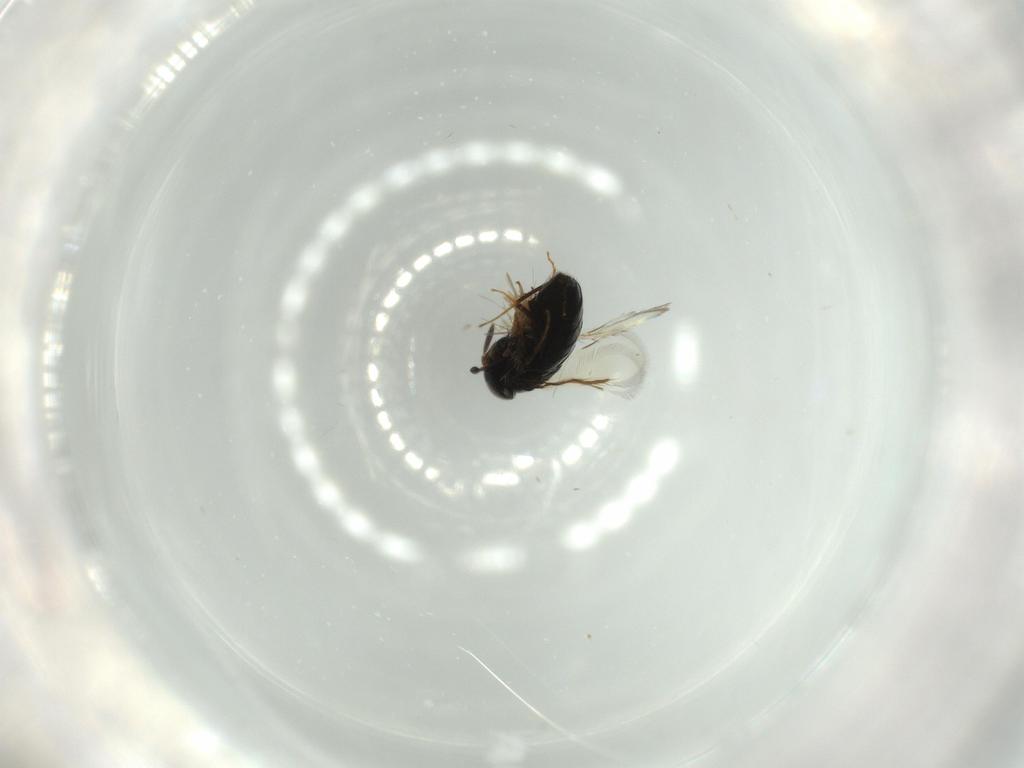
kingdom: Animalia
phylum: Arthropoda
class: Insecta
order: Hymenoptera
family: Signiphoridae
